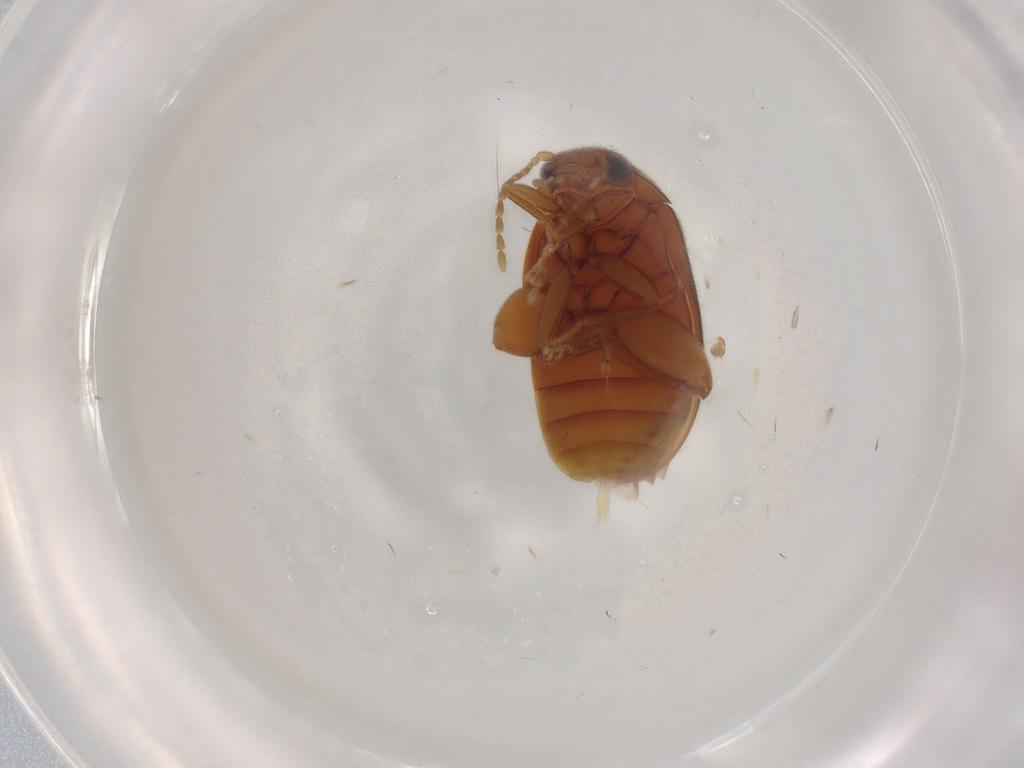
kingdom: Animalia
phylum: Arthropoda
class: Insecta
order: Coleoptera
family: Scirtidae
